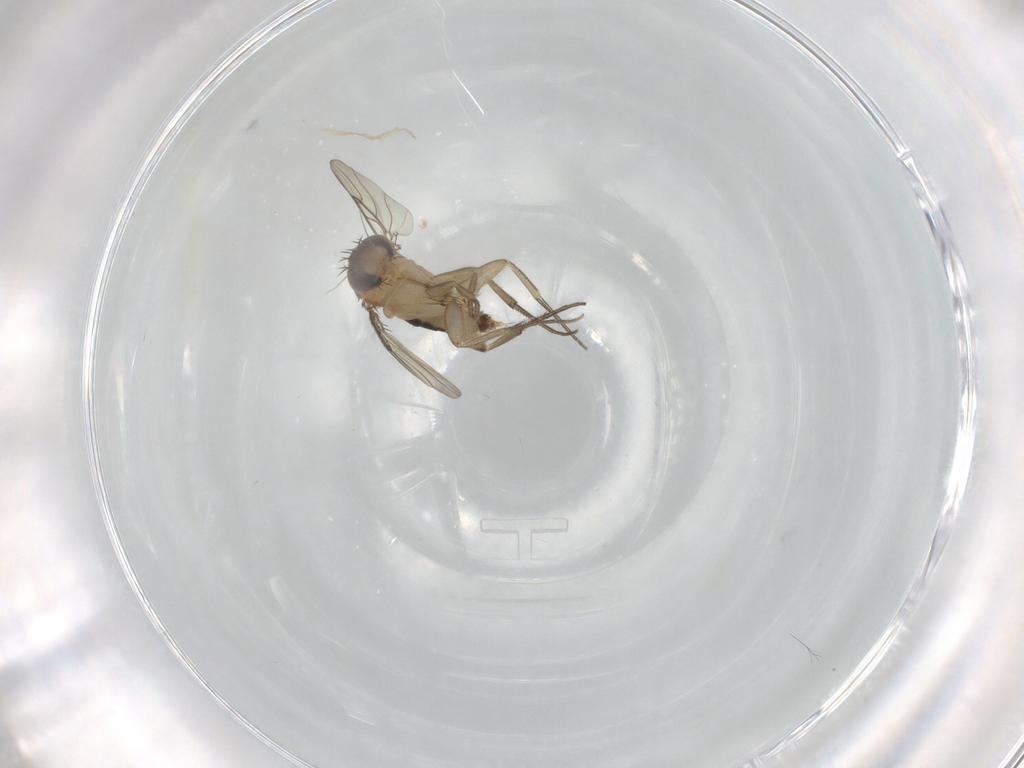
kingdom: Animalia
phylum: Arthropoda
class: Insecta
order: Diptera
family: Phoridae
